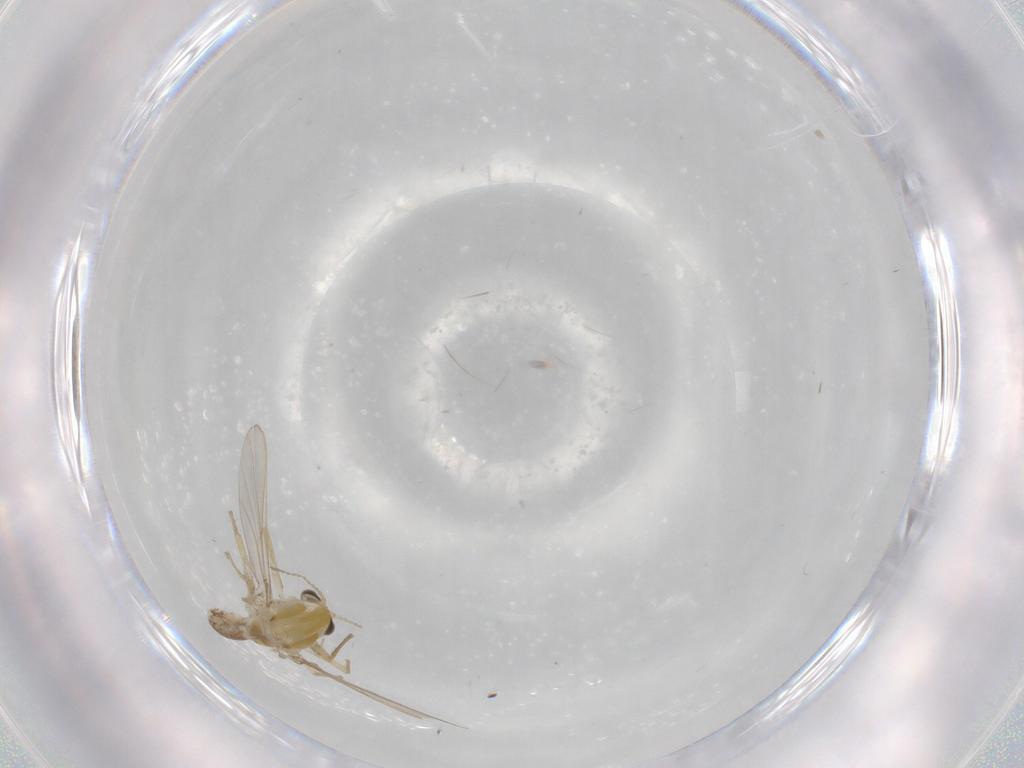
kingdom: Animalia
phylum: Arthropoda
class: Insecta
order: Diptera
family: Chironomidae
